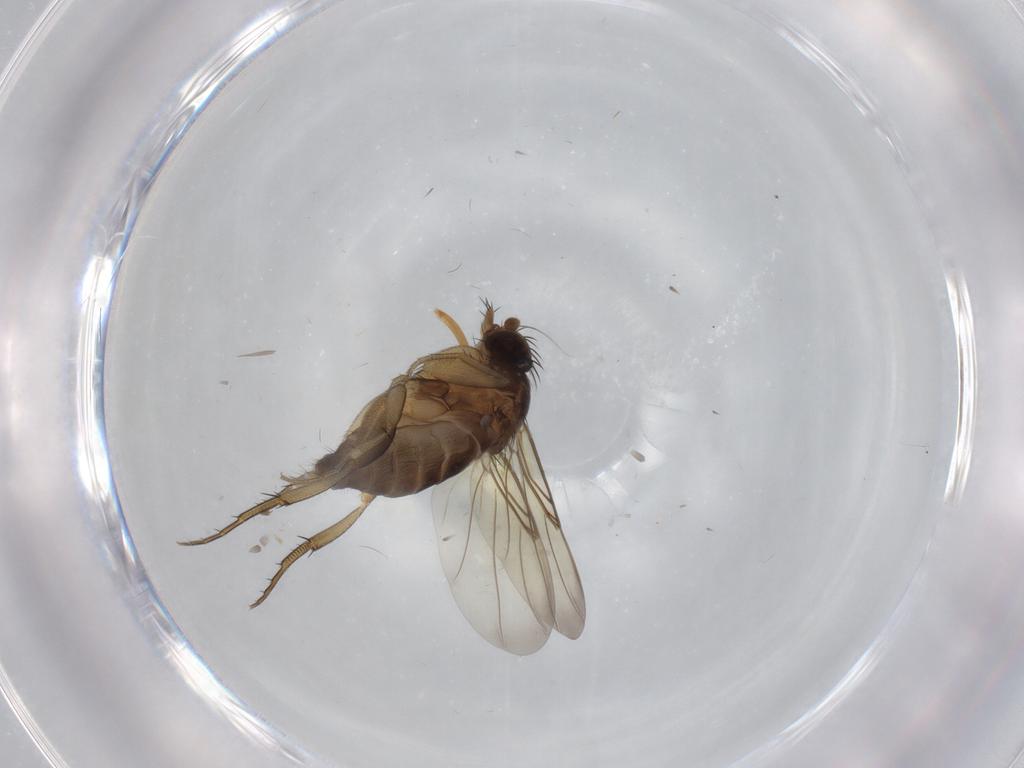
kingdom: Animalia
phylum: Arthropoda
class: Insecta
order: Diptera
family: Phoridae
